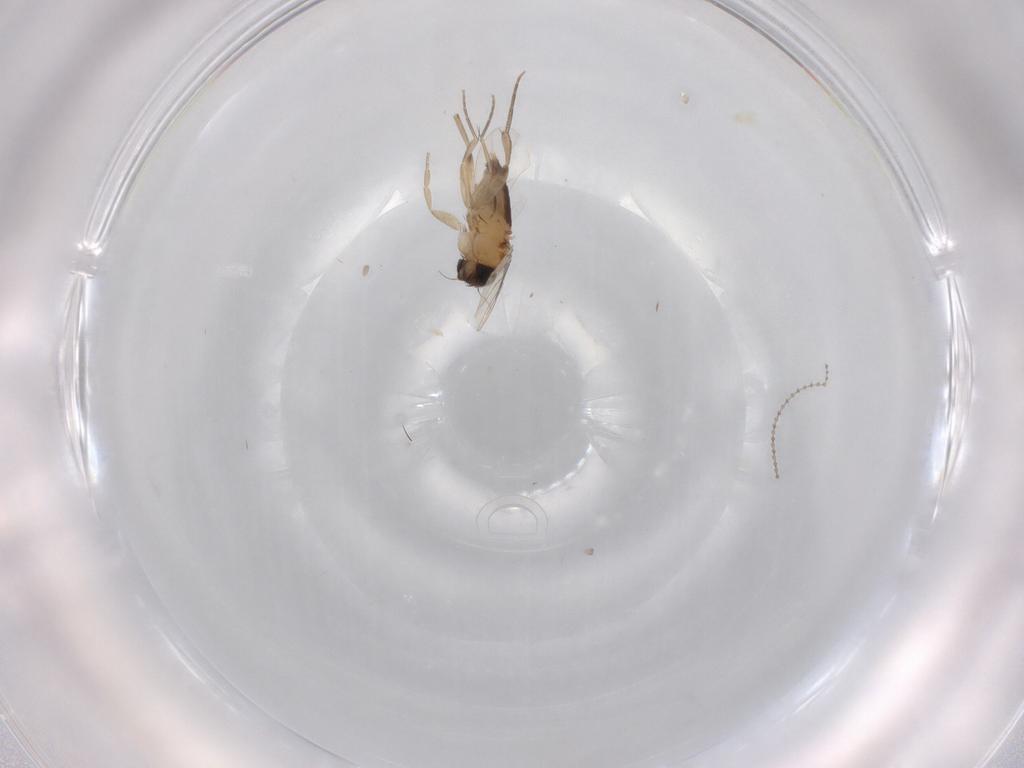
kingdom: Animalia
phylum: Arthropoda
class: Insecta
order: Diptera
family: Phoridae
